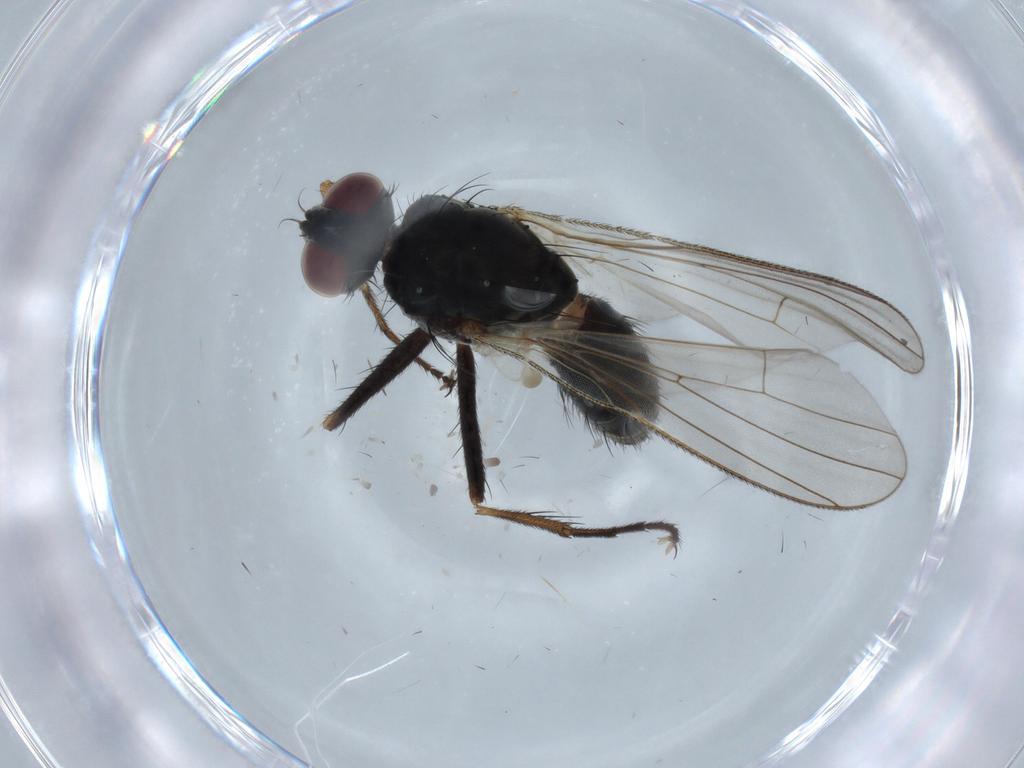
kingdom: Animalia
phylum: Arthropoda
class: Insecta
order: Diptera
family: Muscidae
